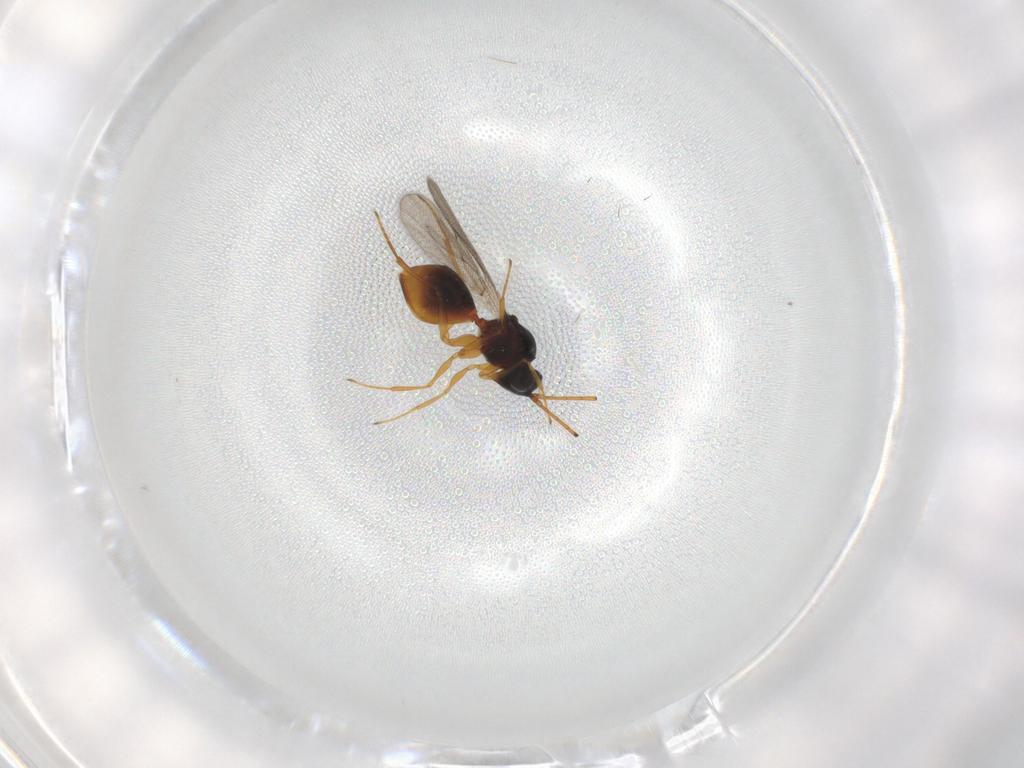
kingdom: Animalia
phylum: Arthropoda
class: Insecta
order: Hymenoptera
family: Figitidae
